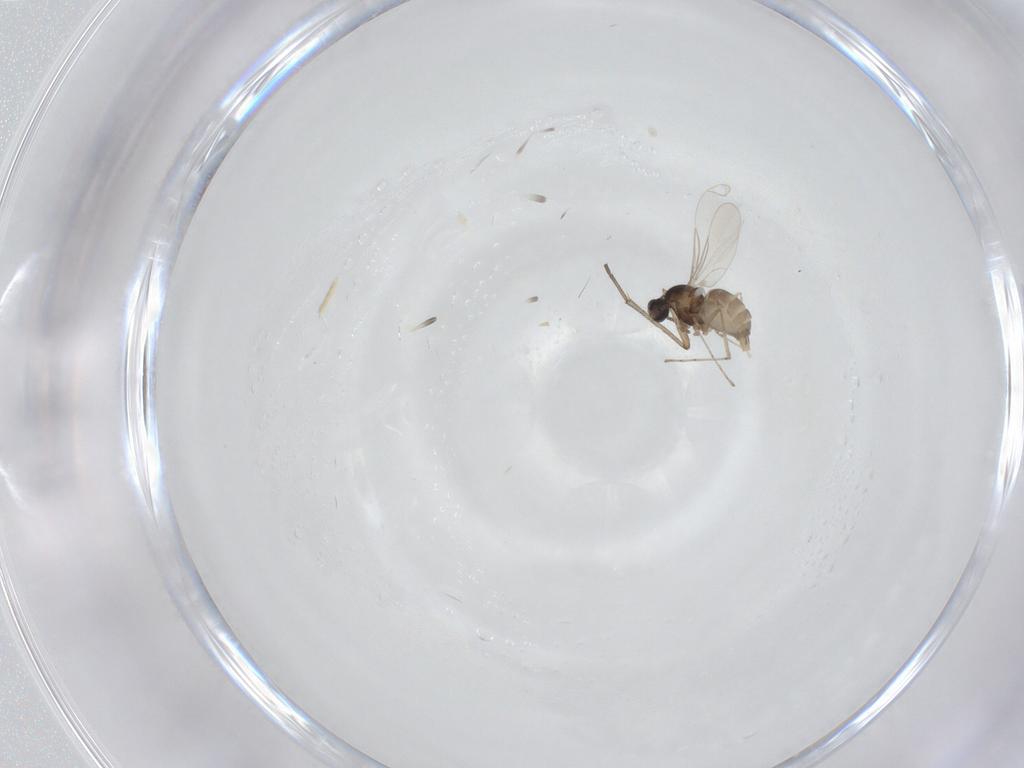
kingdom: Animalia
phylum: Arthropoda
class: Insecta
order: Diptera
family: Cecidomyiidae
